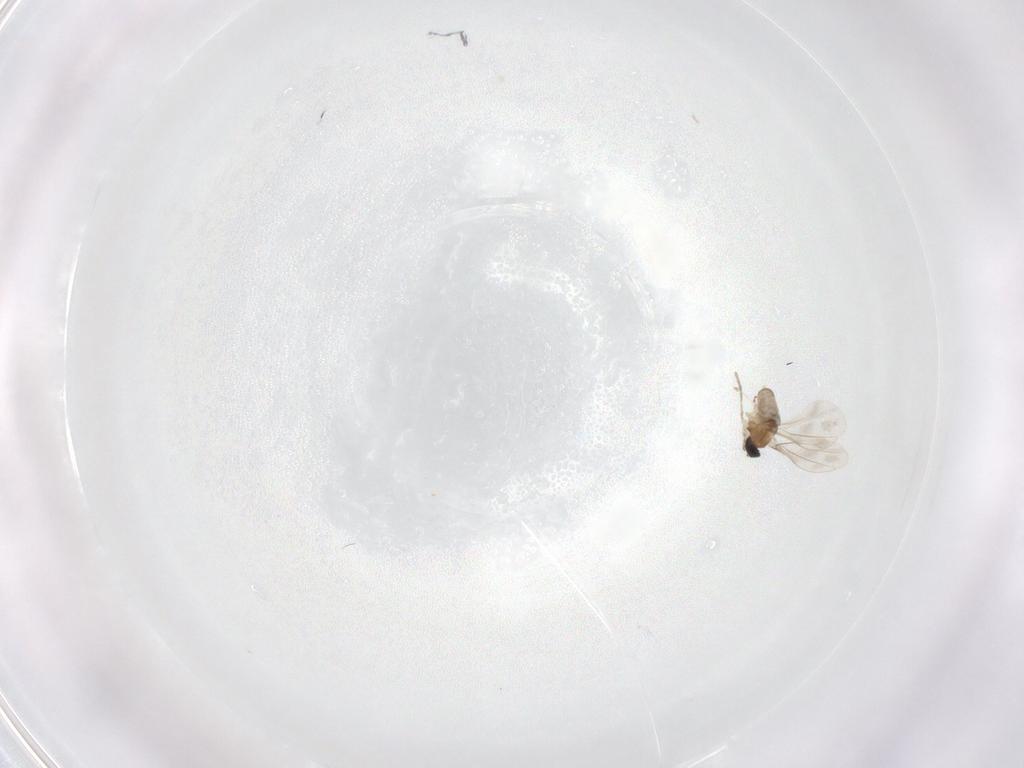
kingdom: Animalia
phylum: Arthropoda
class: Insecta
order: Diptera
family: Cecidomyiidae
